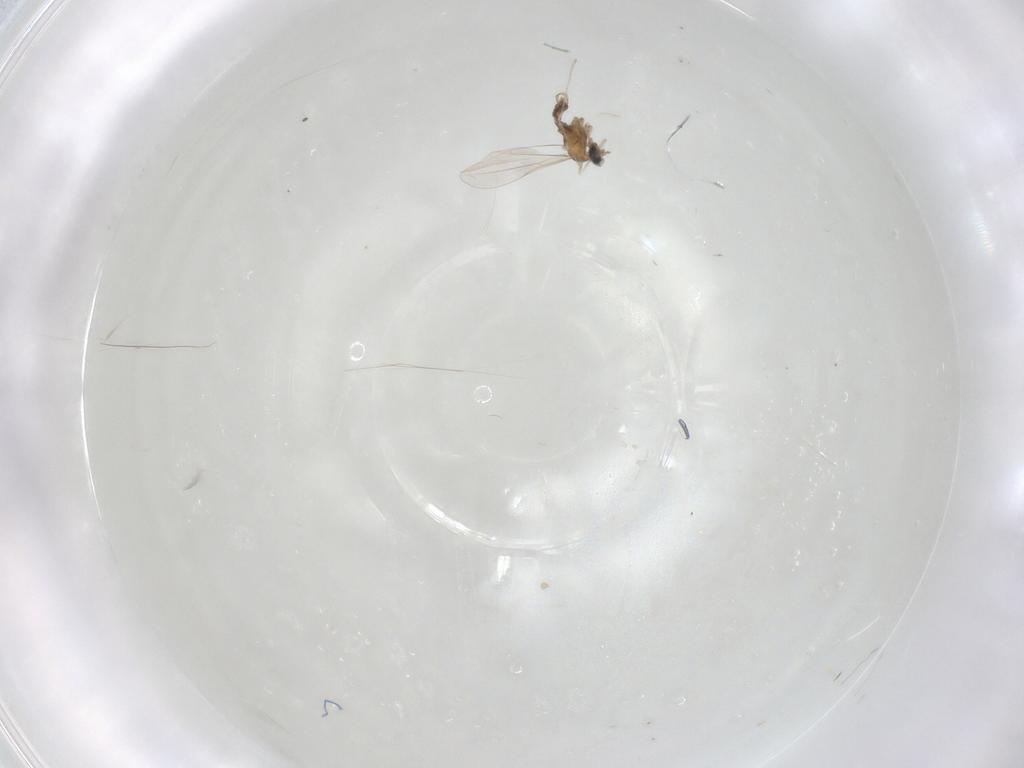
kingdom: Animalia
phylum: Arthropoda
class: Insecta
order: Diptera
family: Cecidomyiidae
